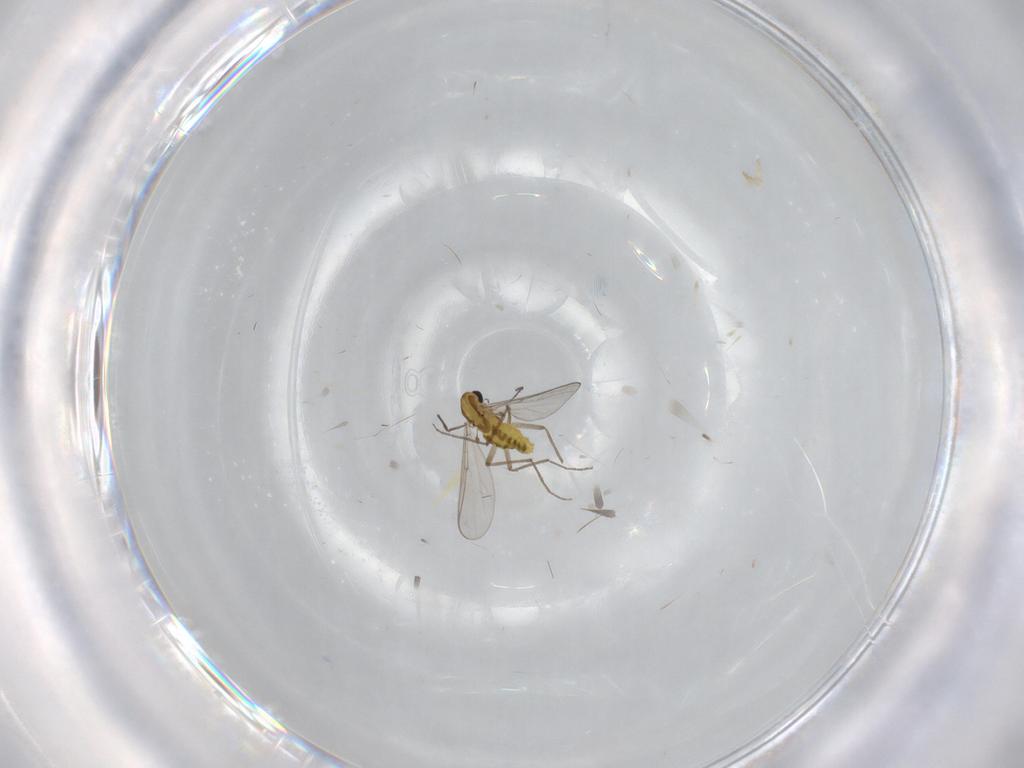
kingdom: Animalia
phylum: Arthropoda
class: Insecta
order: Diptera
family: Chironomidae
